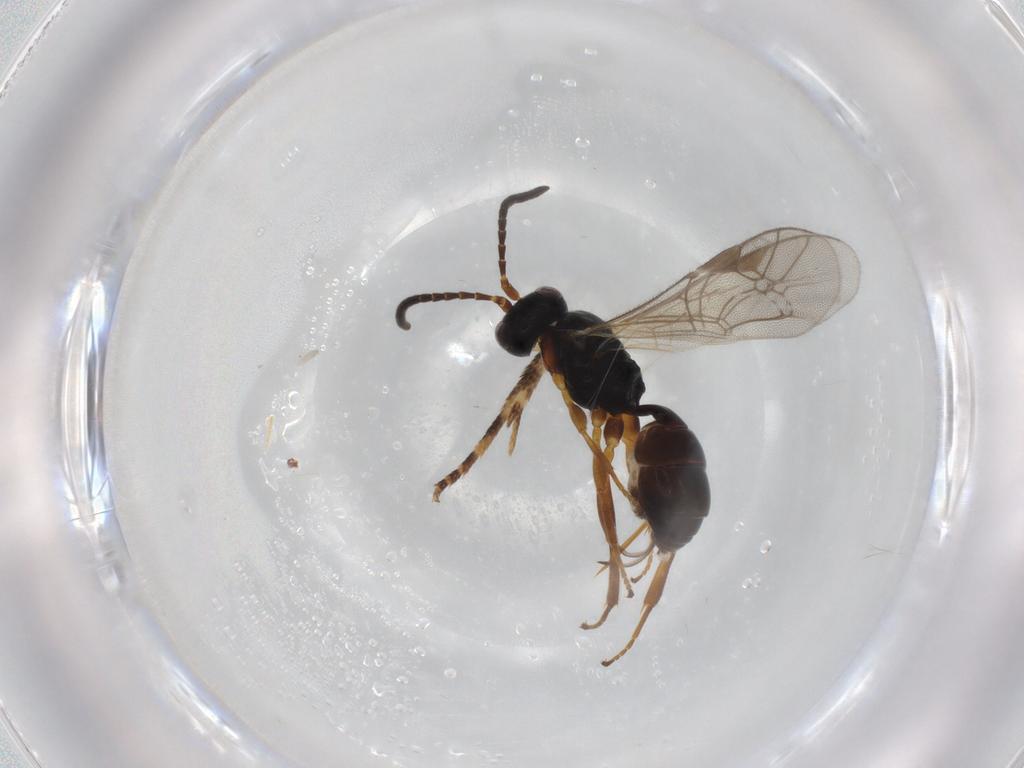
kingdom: Animalia
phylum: Arthropoda
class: Insecta
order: Hymenoptera
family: Ichneumonidae
